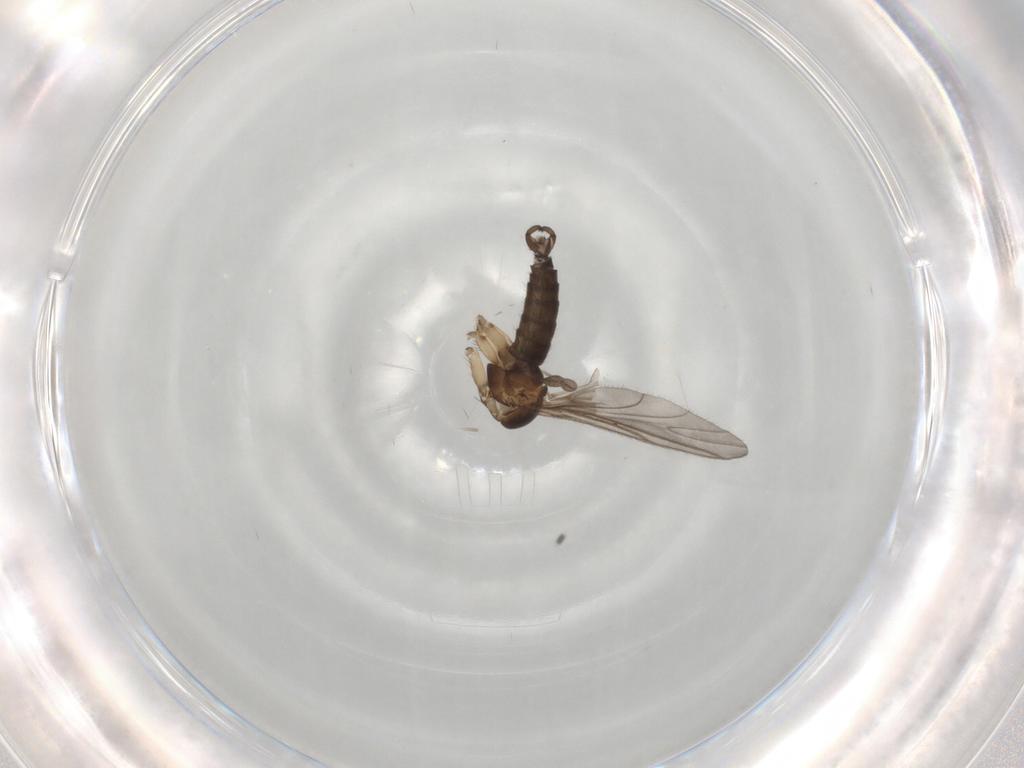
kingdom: Animalia
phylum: Arthropoda
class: Insecta
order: Diptera
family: Sciaridae
